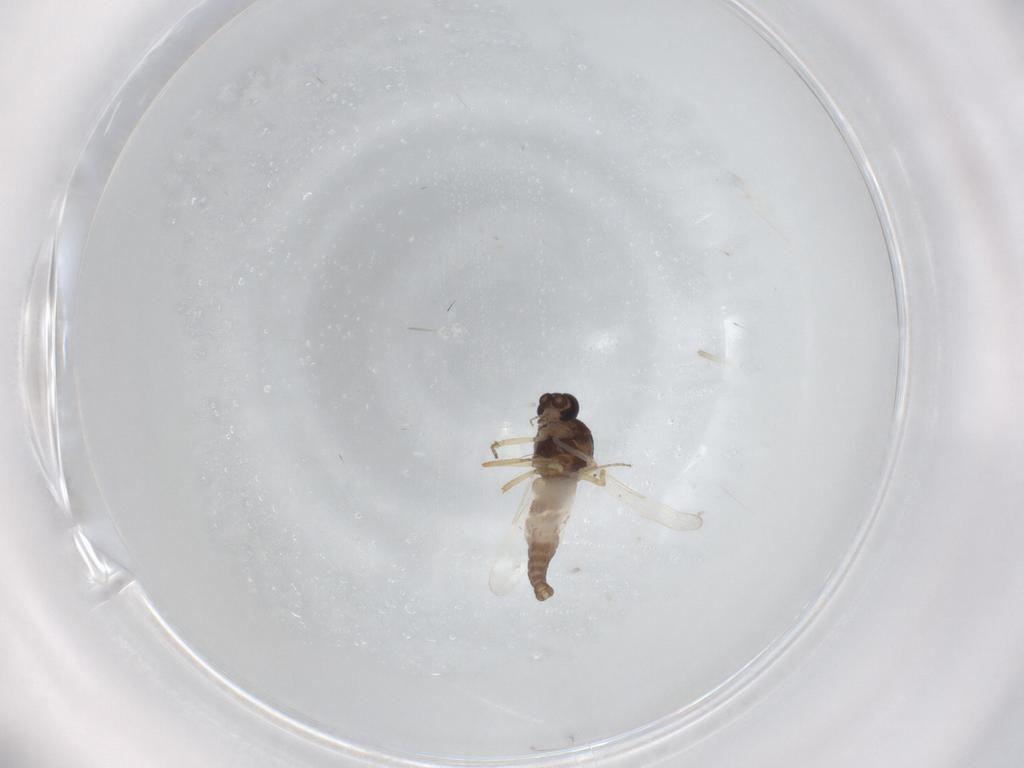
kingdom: Animalia
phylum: Arthropoda
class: Insecta
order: Diptera
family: Ceratopogonidae
